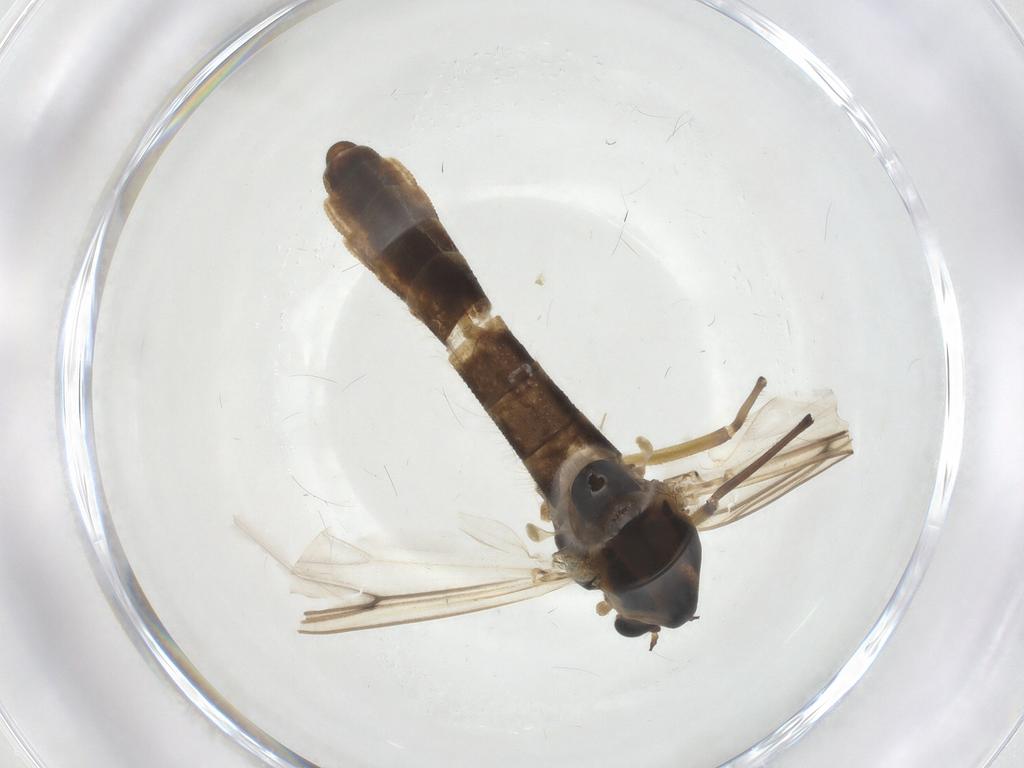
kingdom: Animalia
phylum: Arthropoda
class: Insecta
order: Diptera
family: Chironomidae
